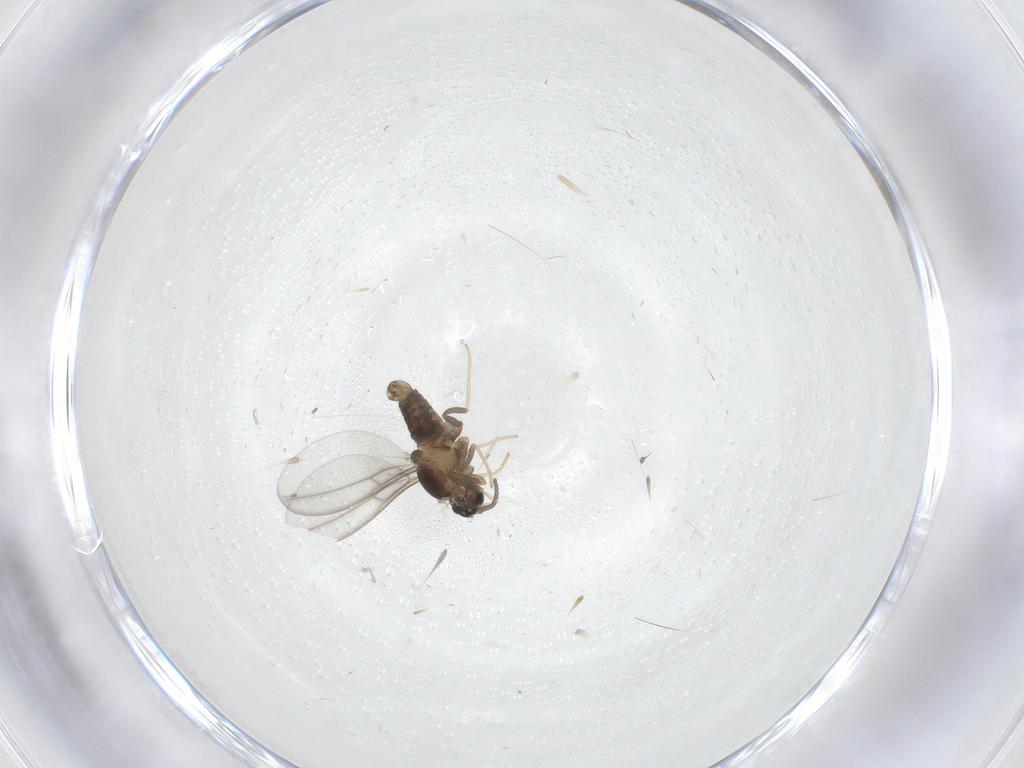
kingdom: Animalia
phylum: Arthropoda
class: Insecta
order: Diptera
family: Cecidomyiidae
